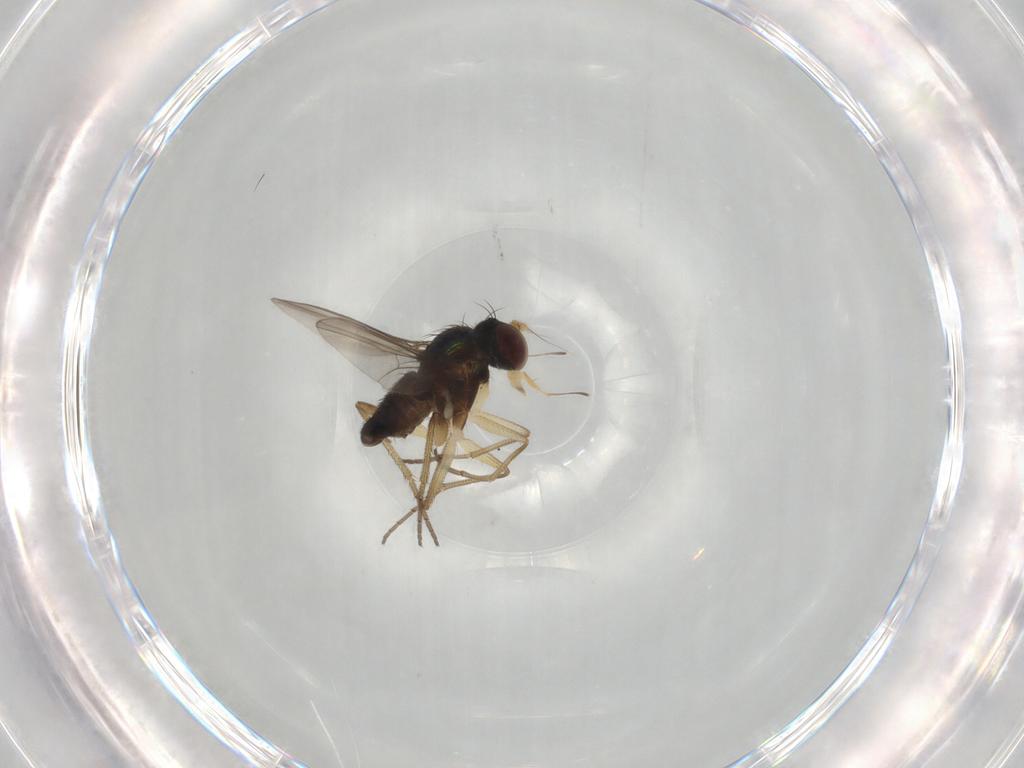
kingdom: Animalia
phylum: Arthropoda
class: Insecta
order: Diptera
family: Dolichopodidae
